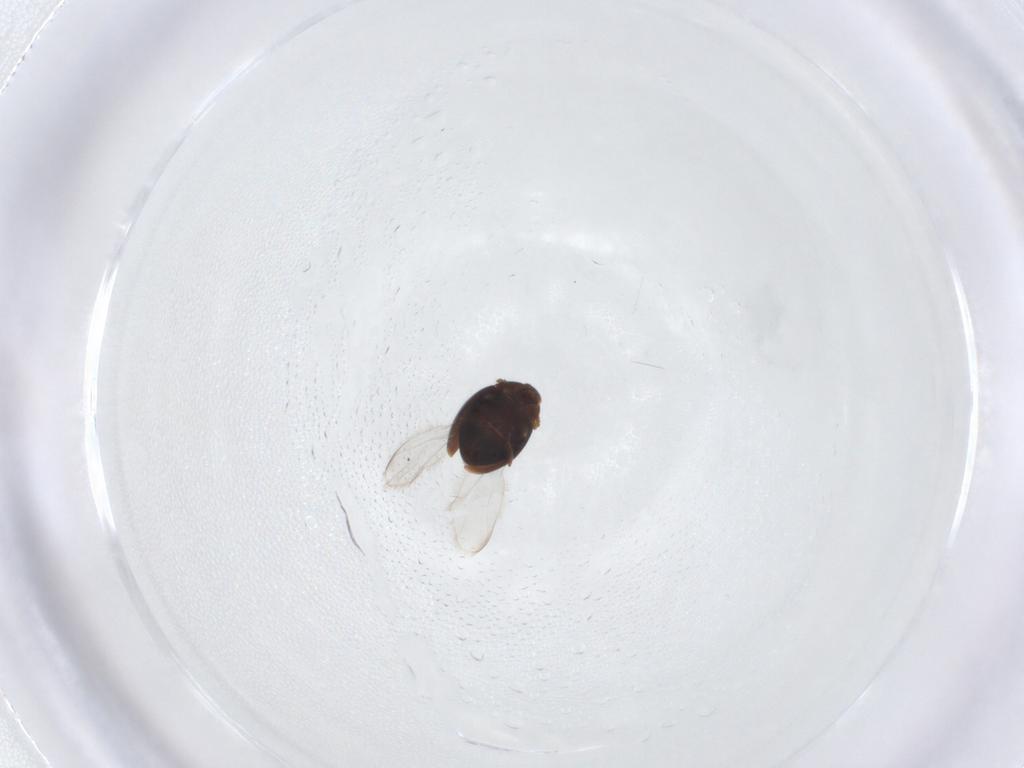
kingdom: Animalia
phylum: Arthropoda
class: Insecta
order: Coleoptera
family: Corylophidae
